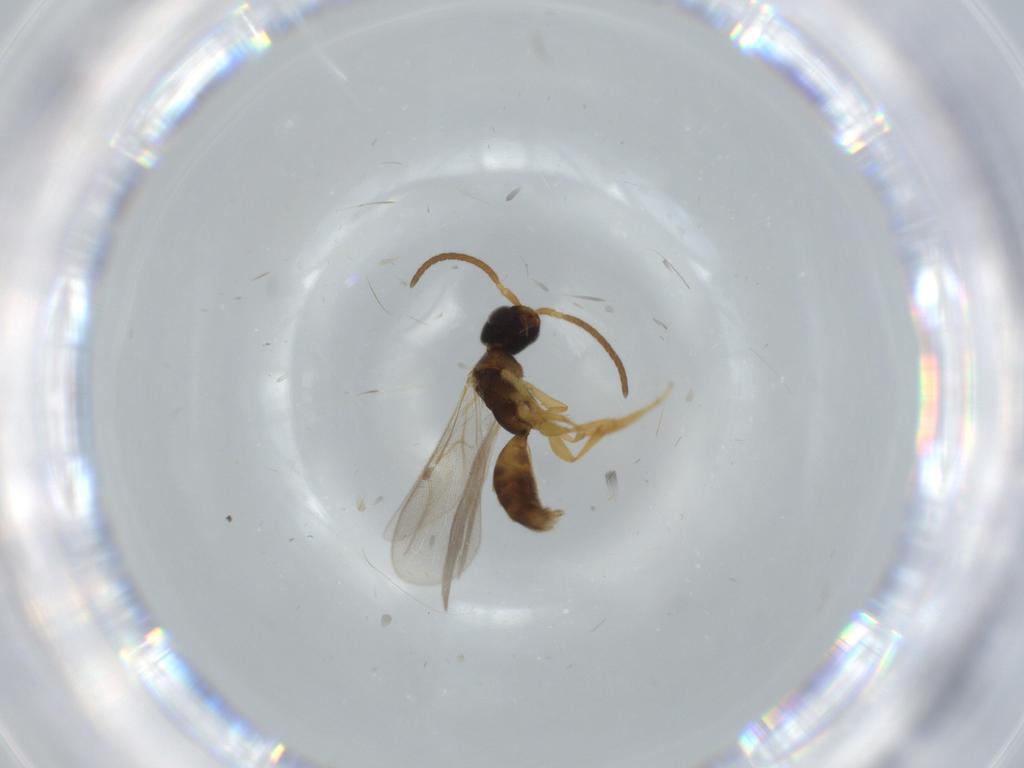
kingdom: Animalia
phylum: Arthropoda
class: Insecta
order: Hymenoptera
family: Bethylidae
